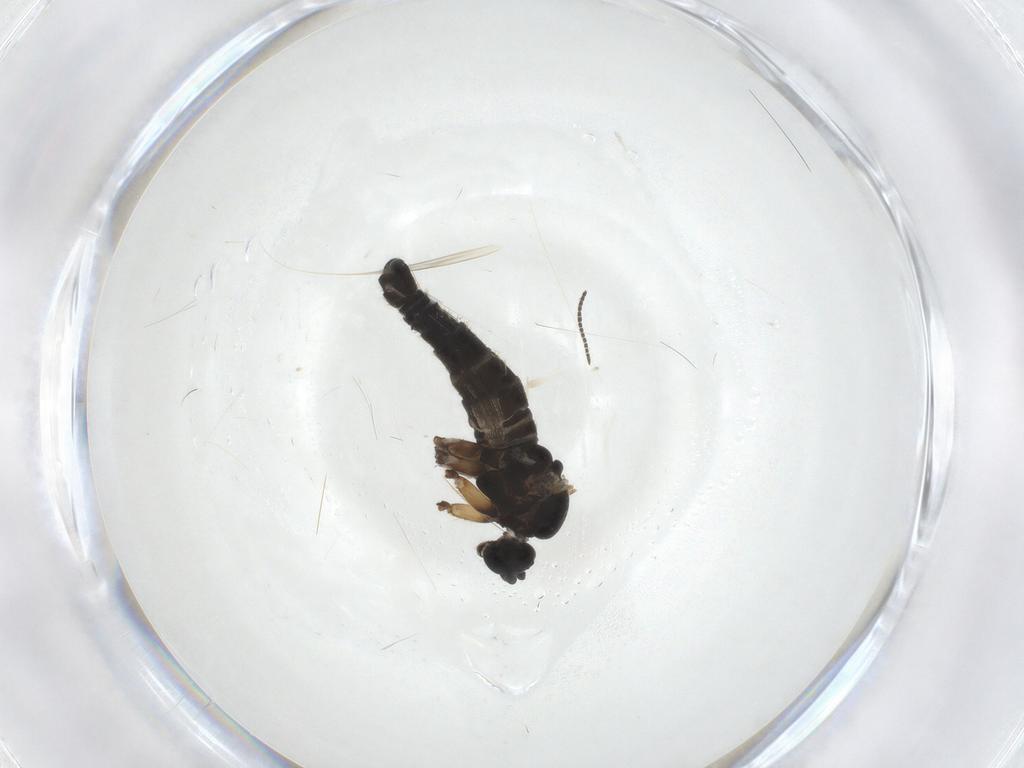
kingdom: Animalia
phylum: Arthropoda
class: Insecta
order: Diptera
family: Sciaridae
